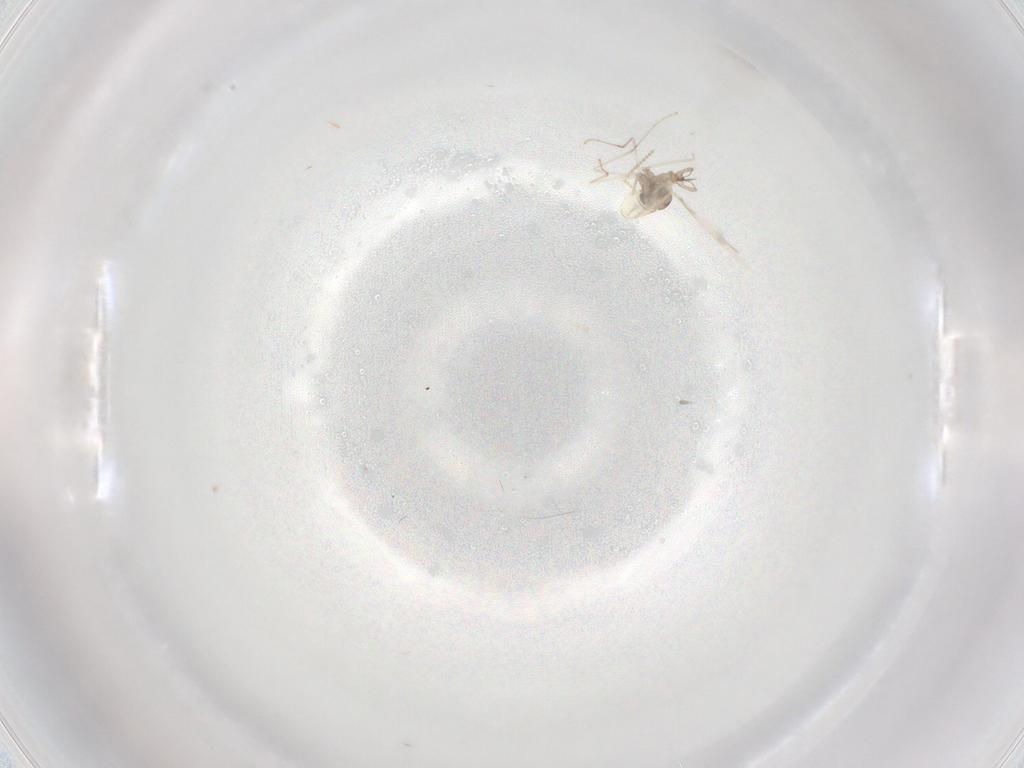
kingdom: Animalia
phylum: Arthropoda
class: Insecta
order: Diptera
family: Cecidomyiidae
